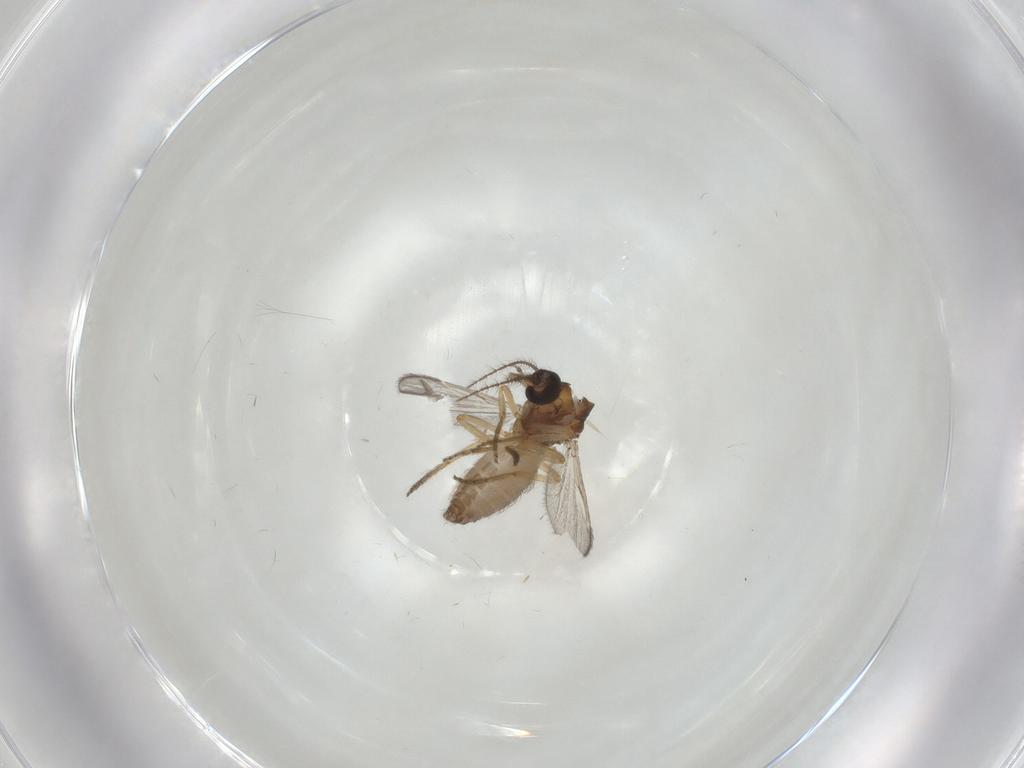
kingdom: Animalia
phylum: Arthropoda
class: Insecta
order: Diptera
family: Ceratopogonidae
